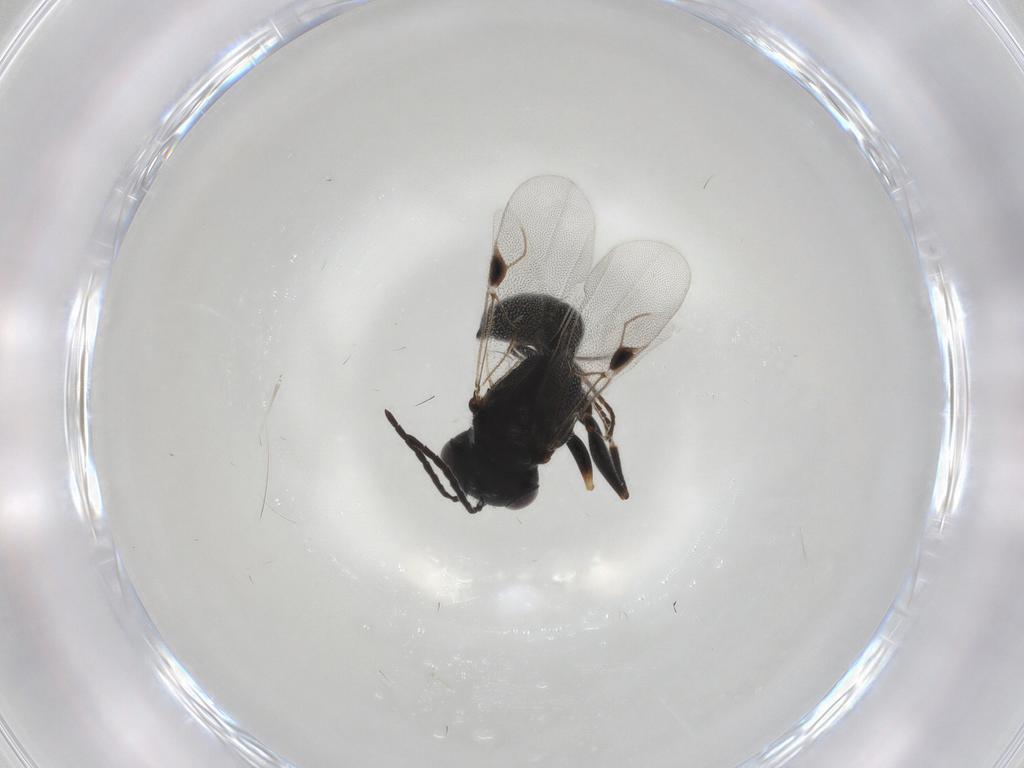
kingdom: Animalia
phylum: Arthropoda
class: Insecta
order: Hymenoptera
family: Dryinidae
